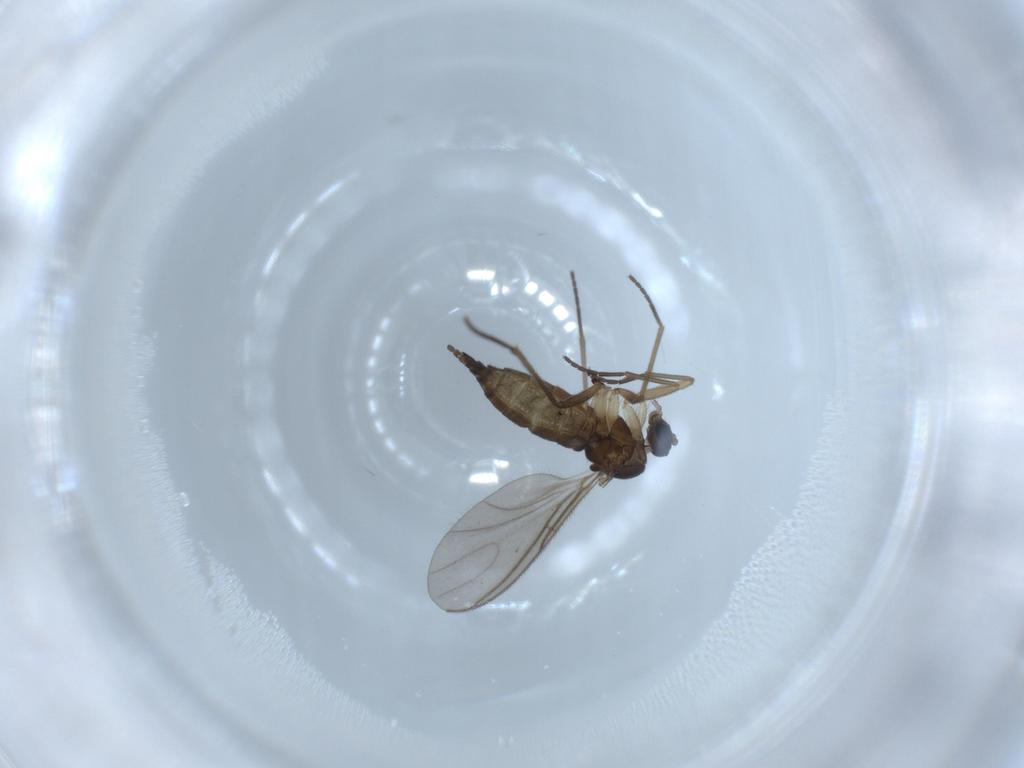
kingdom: Animalia
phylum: Arthropoda
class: Insecta
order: Diptera
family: Sciaridae
